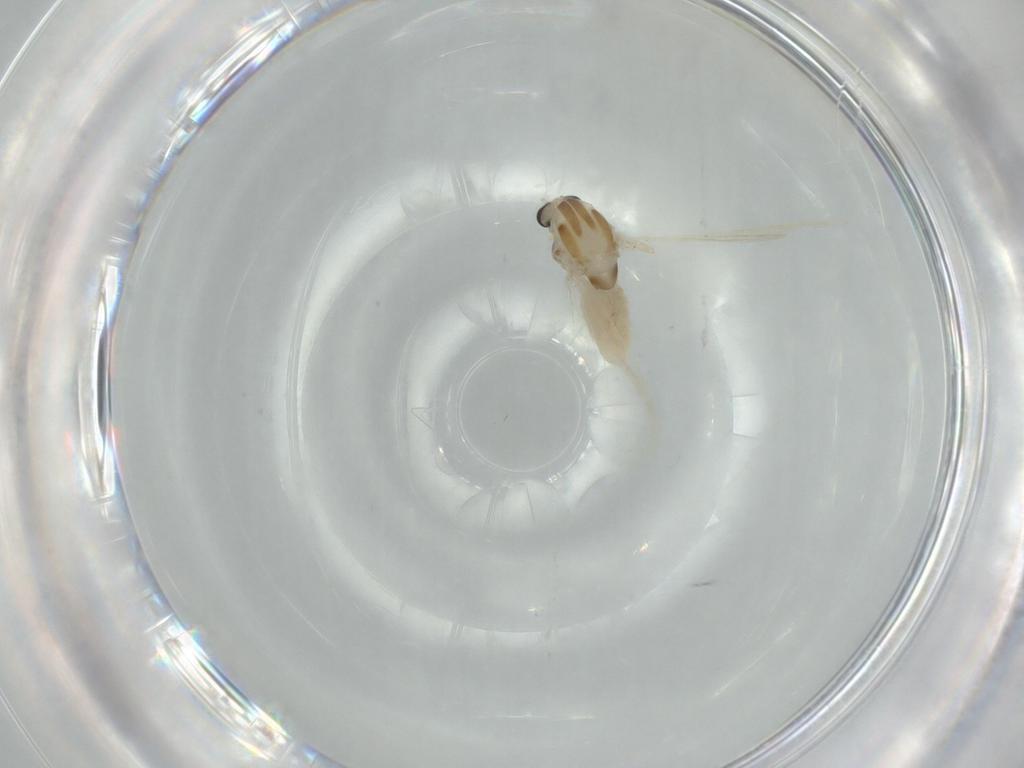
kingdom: Animalia
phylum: Arthropoda
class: Insecta
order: Diptera
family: Chironomidae
